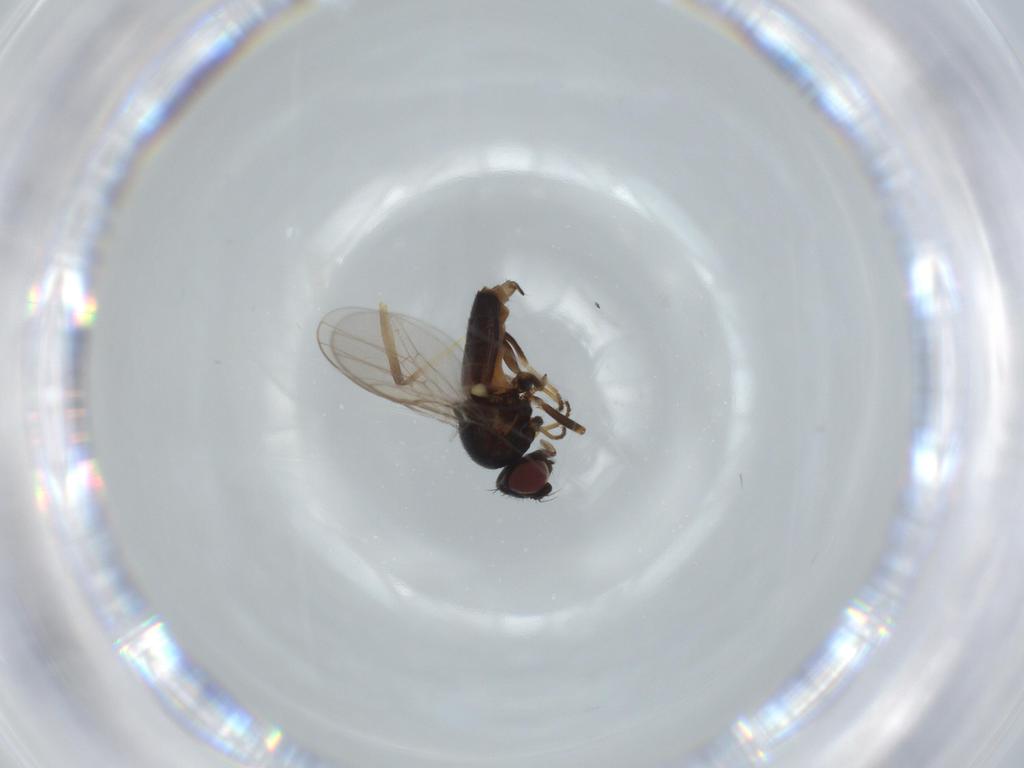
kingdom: Animalia
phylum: Arthropoda
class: Insecta
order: Diptera
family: Chloropidae
